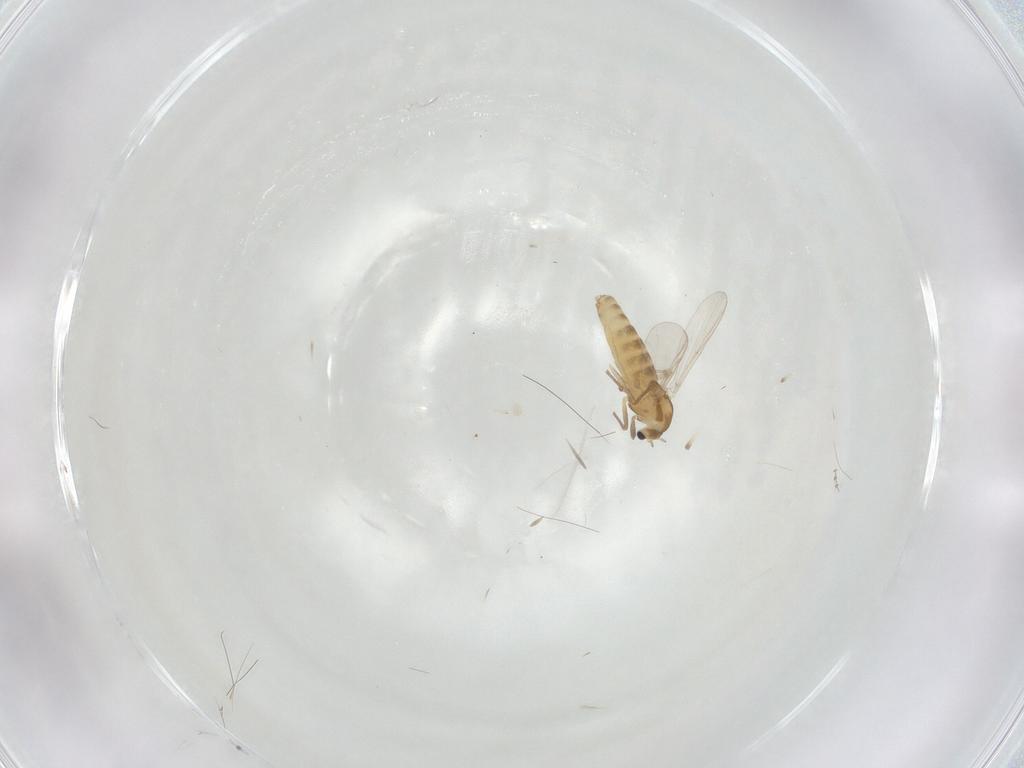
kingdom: Animalia
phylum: Arthropoda
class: Insecta
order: Diptera
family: Chironomidae
